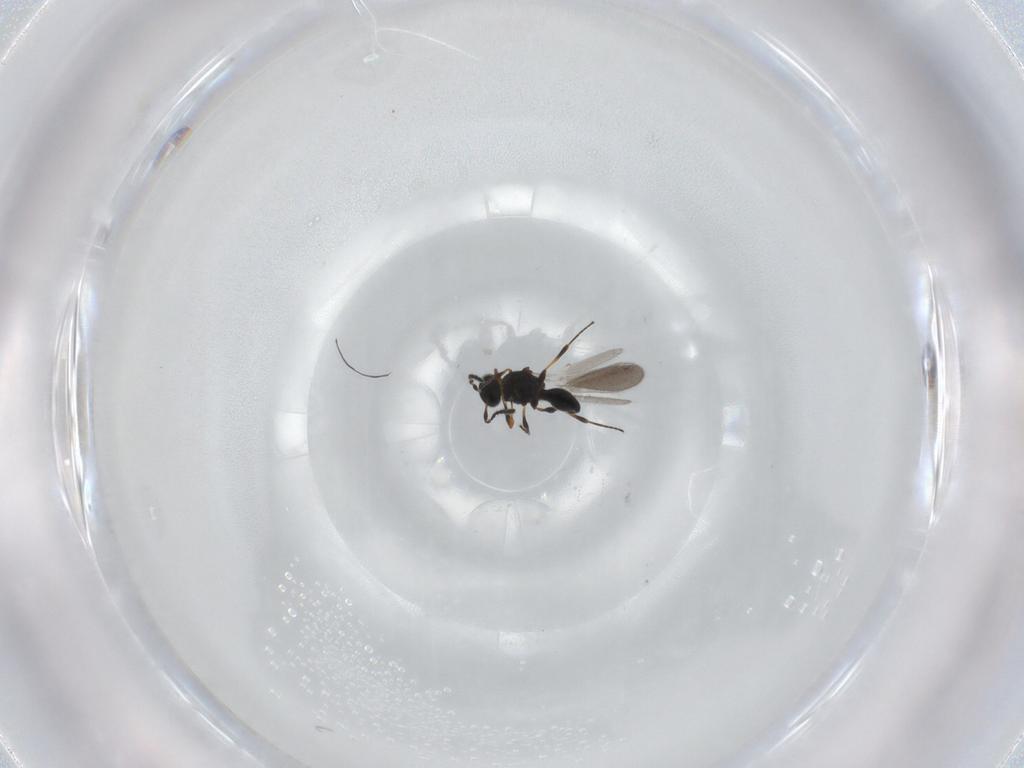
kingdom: Animalia
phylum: Arthropoda
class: Insecta
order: Hymenoptera
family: Platygastridae
